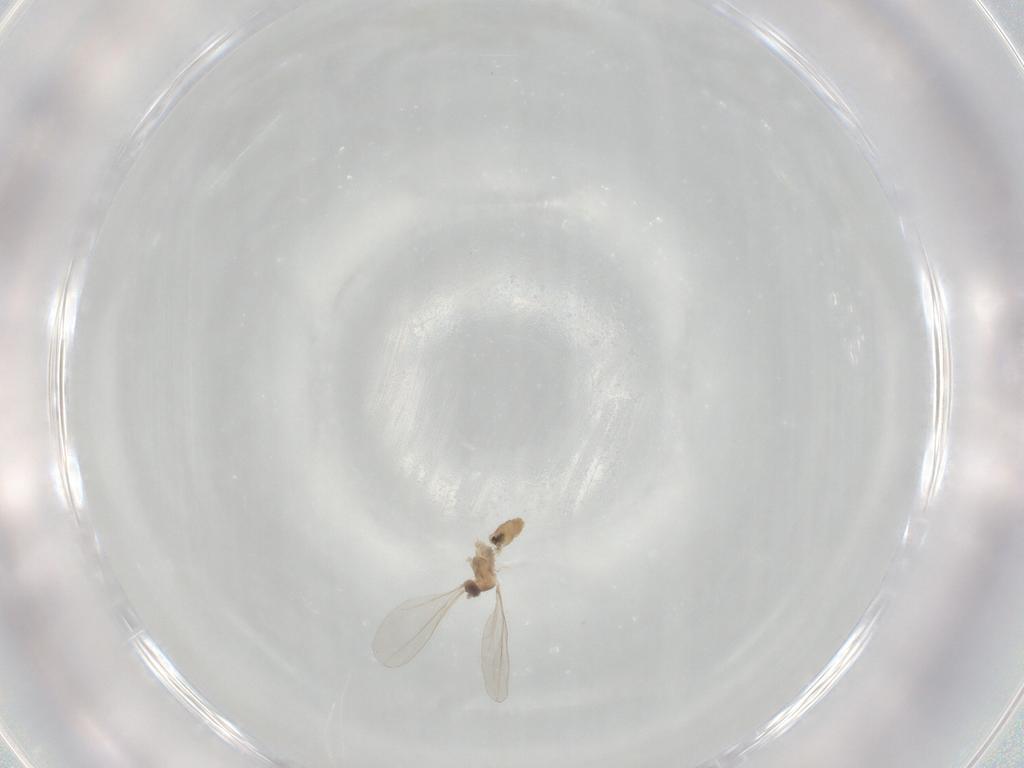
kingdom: Animalia
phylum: Arthropoda
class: Insecta
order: Diptera
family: Cecidomyiidae
